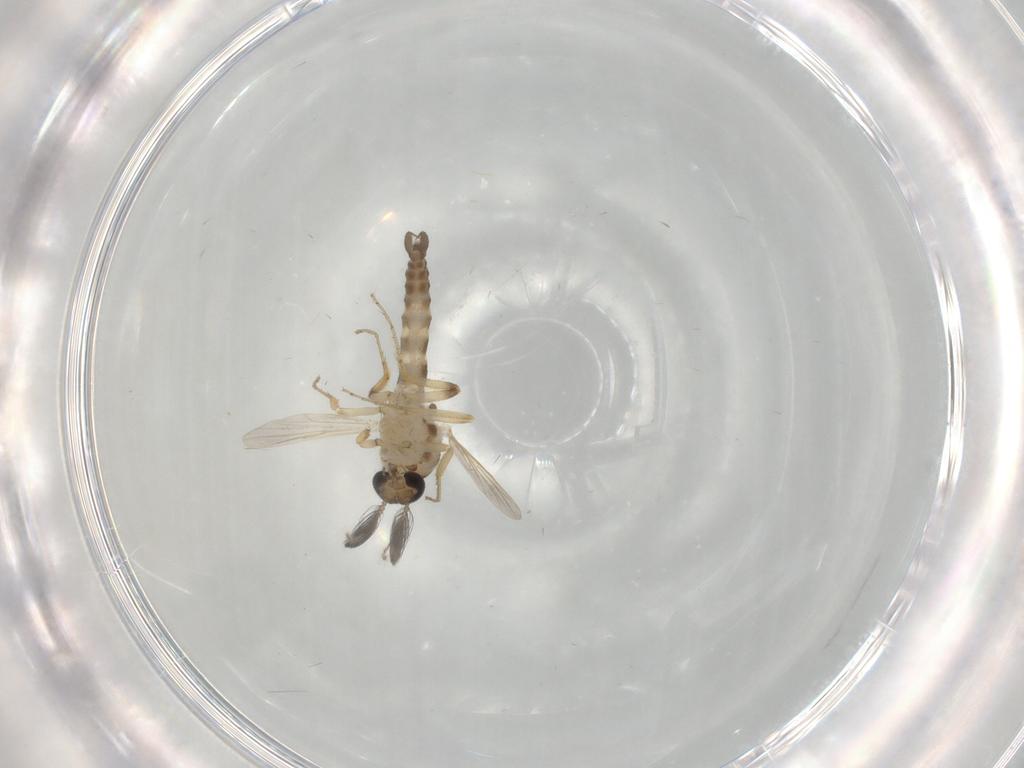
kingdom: Animalia
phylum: Arthropoda
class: Insecta
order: Diptera
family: Ceratopogonidae
